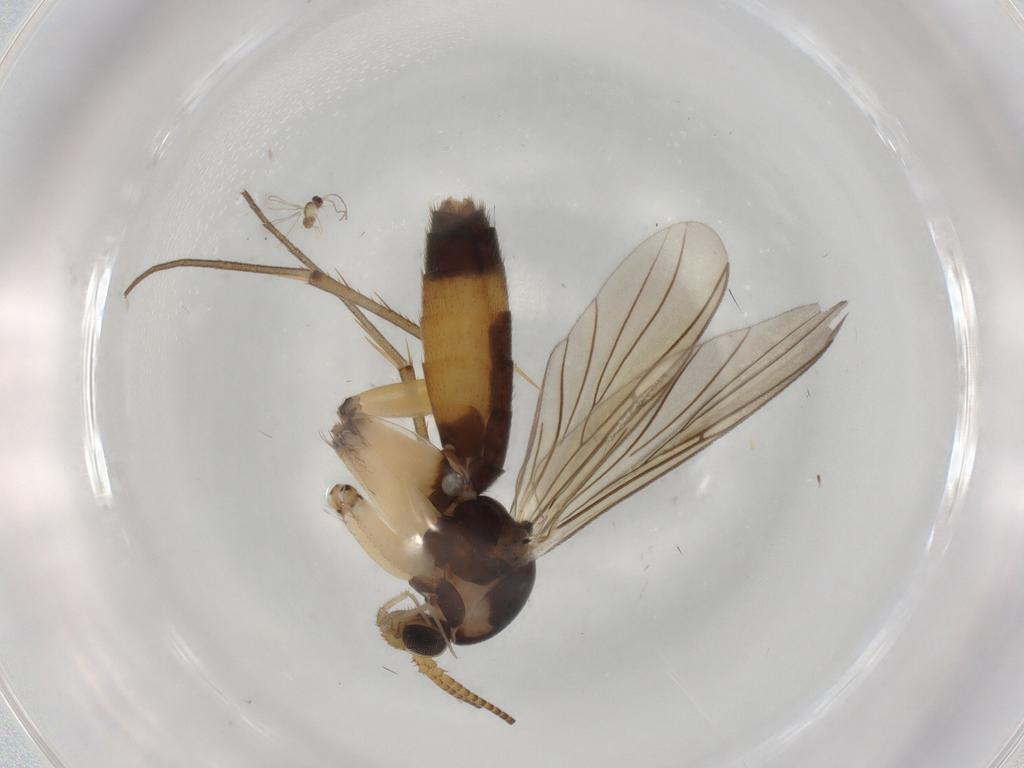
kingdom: Animalia
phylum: Arthropoda
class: Insecta
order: Diptera
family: Mycetophilidae
